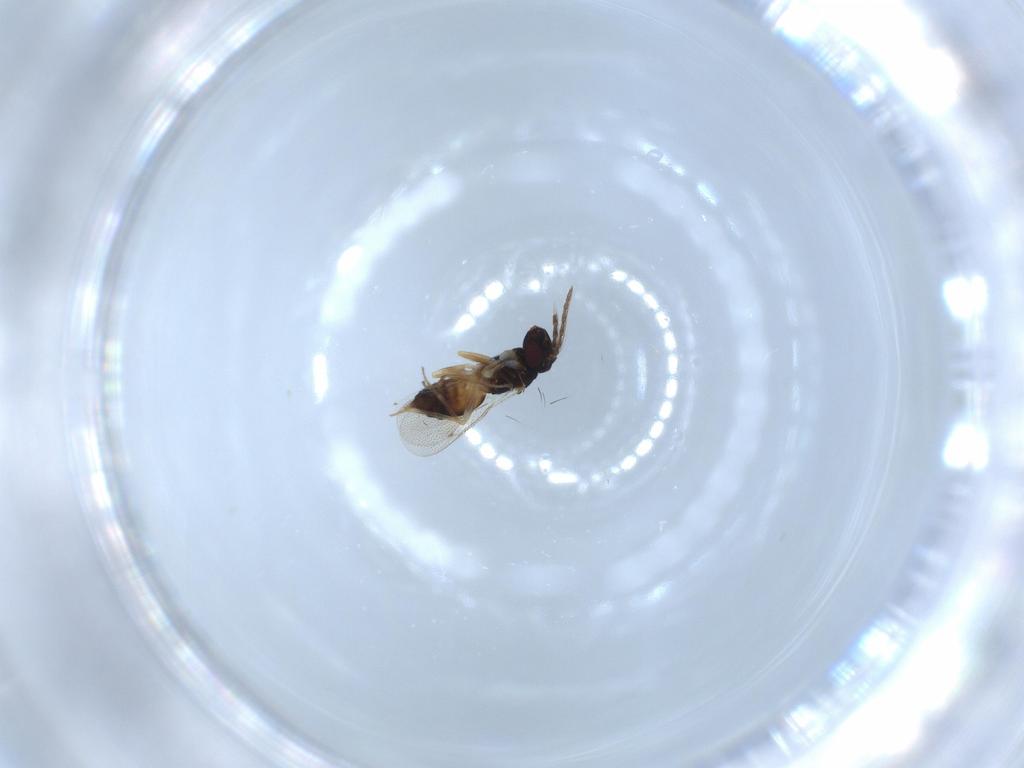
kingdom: Animalia
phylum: Arthropoda
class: Insecta
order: Hymenoptera
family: Eulophidae
